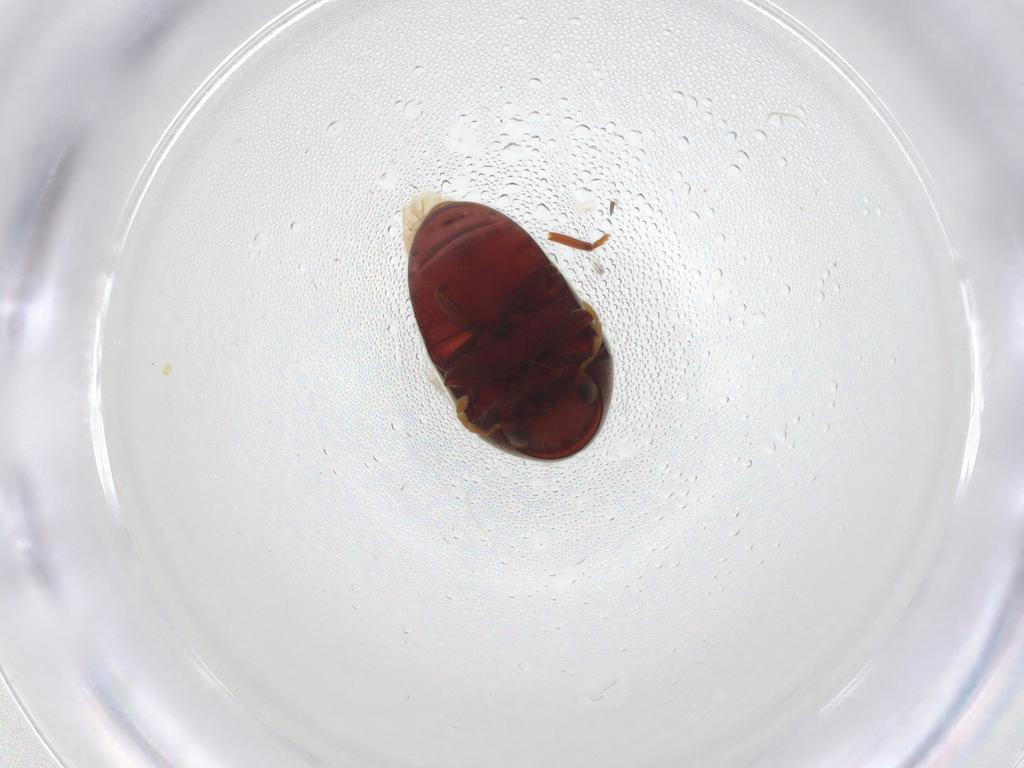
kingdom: Animalia
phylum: Arthropoda
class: Insecta
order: Coleoptera
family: Ptinidae
